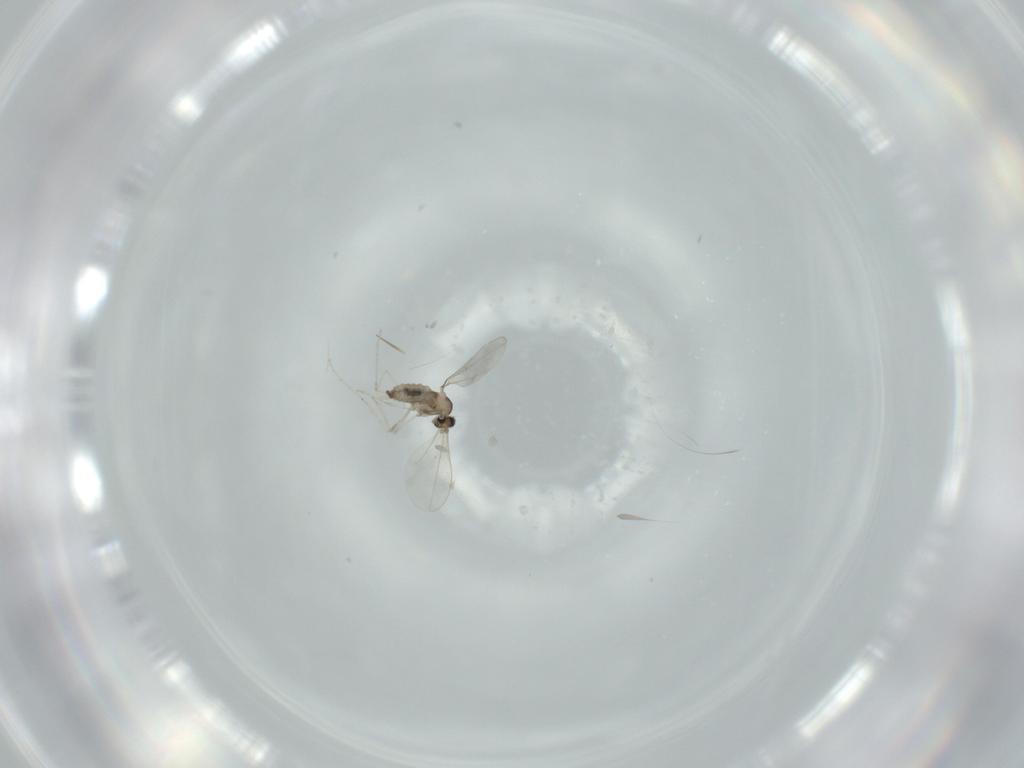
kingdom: Animalia
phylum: Arthropoda
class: Insecta
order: Diptera
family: Cecidomyiidae
